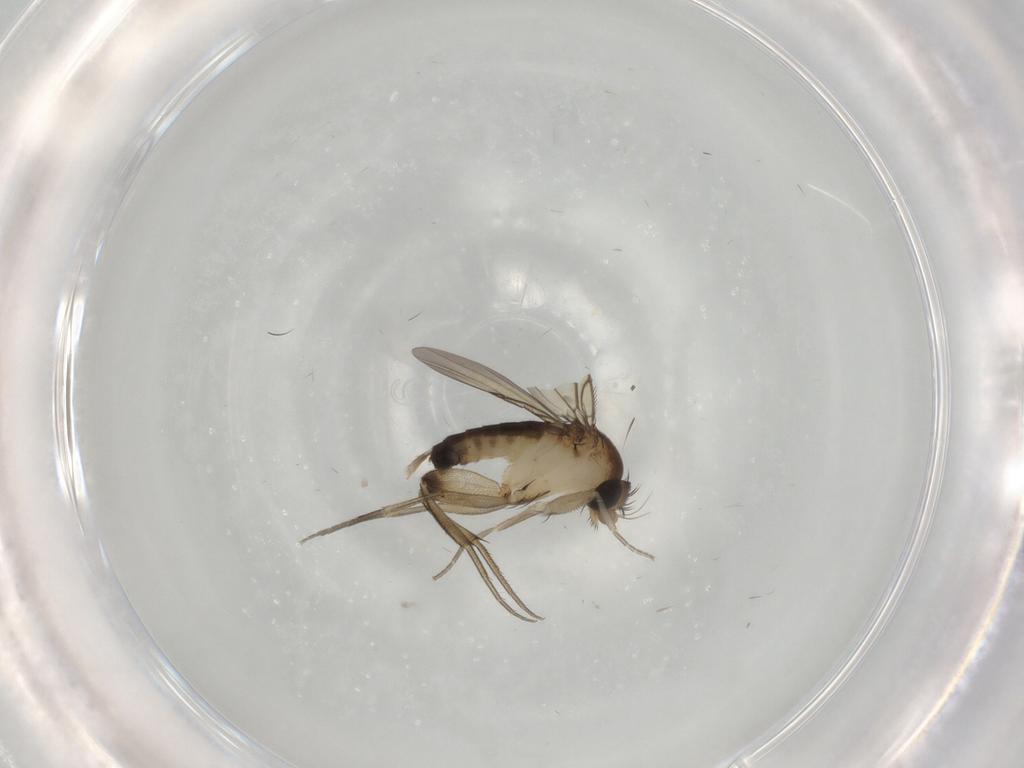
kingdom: Animalia
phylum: Arthropoda
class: Insecta
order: Diptera
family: Phoridae
